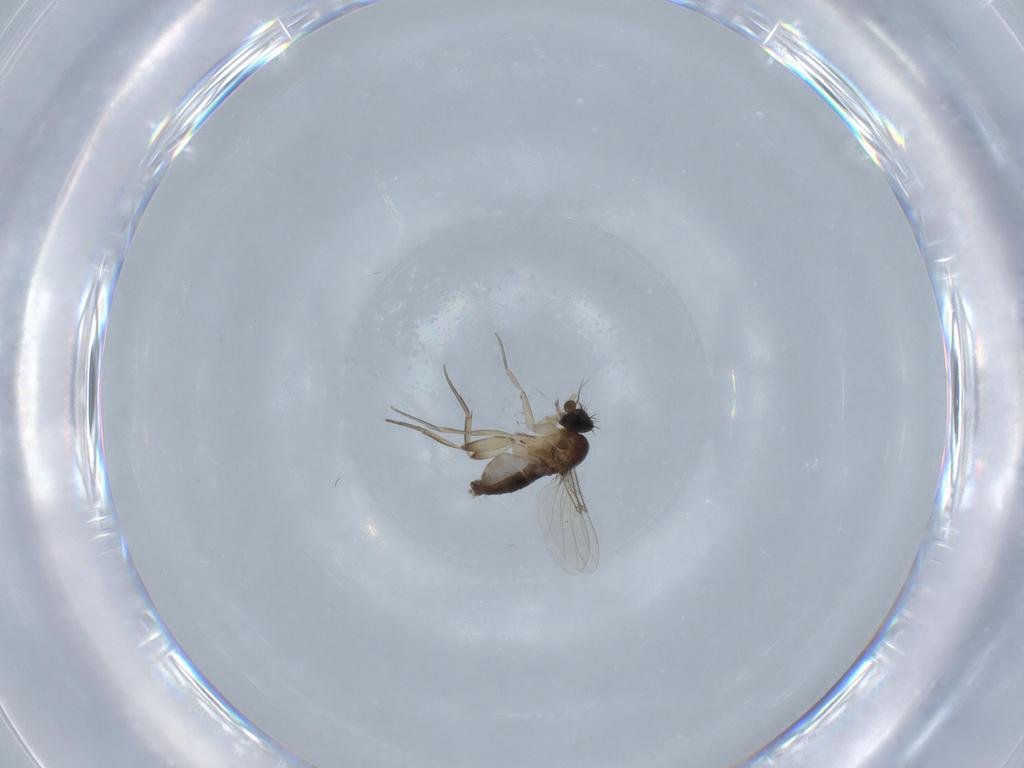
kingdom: Animalia
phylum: Arthropoda
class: Insecta
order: Diptera
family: Phoridae
